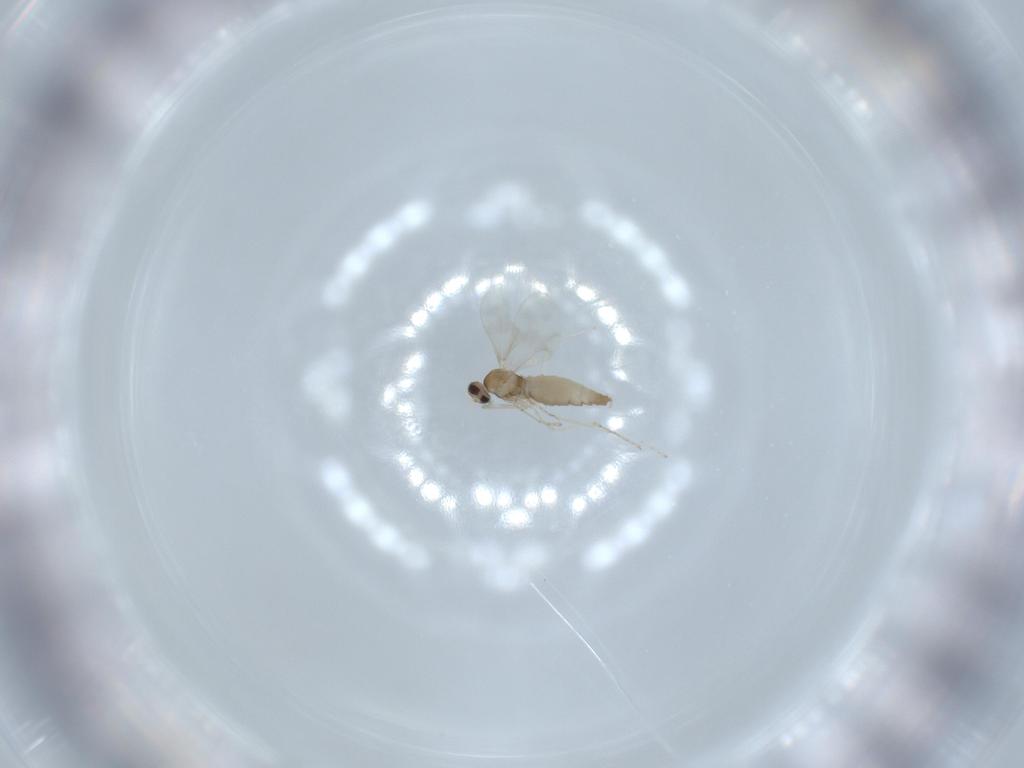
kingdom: Animalia
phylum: Arthropoda
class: Insecta
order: Diptera
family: Cecidomyiidae
